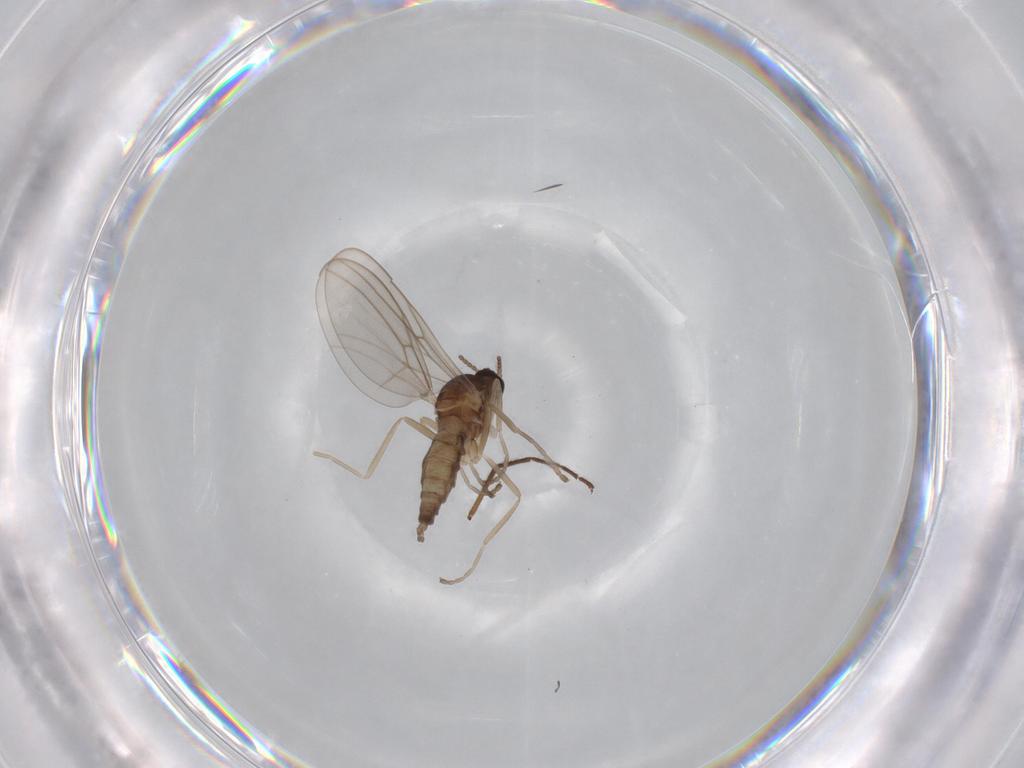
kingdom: Animalia
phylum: Arthropoda
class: Insecta
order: Diptera
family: Cecidomyiidae
